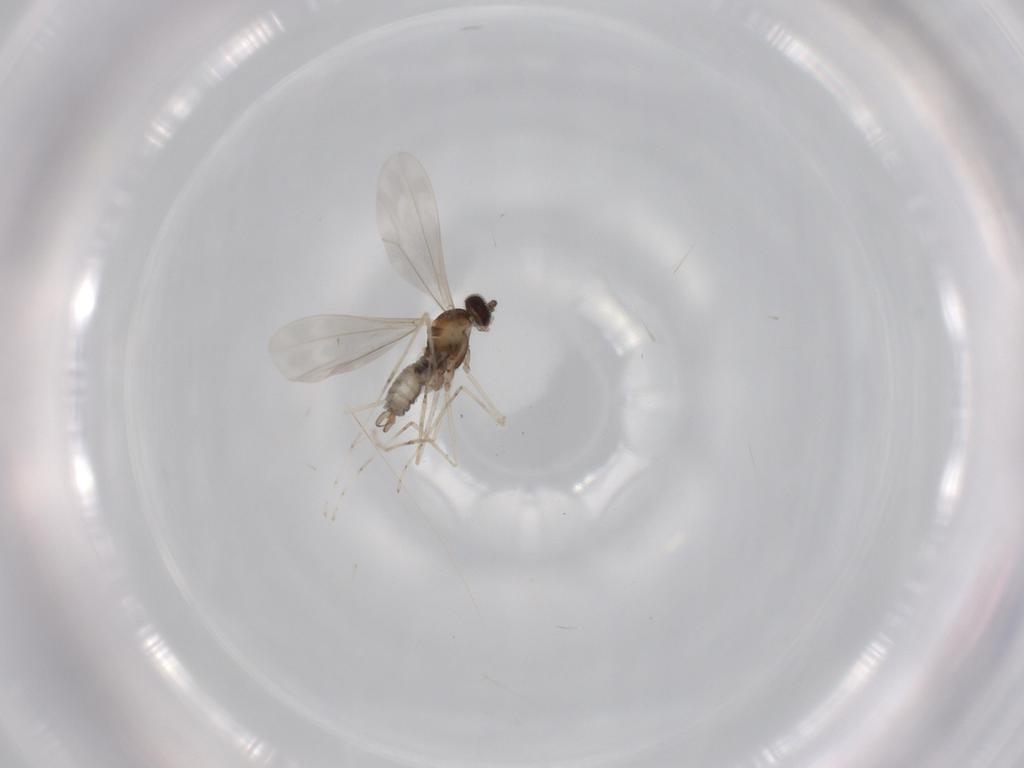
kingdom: Animalia
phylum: Arthropoda
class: Insecta
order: Diptera
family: Cecidomyiidae
